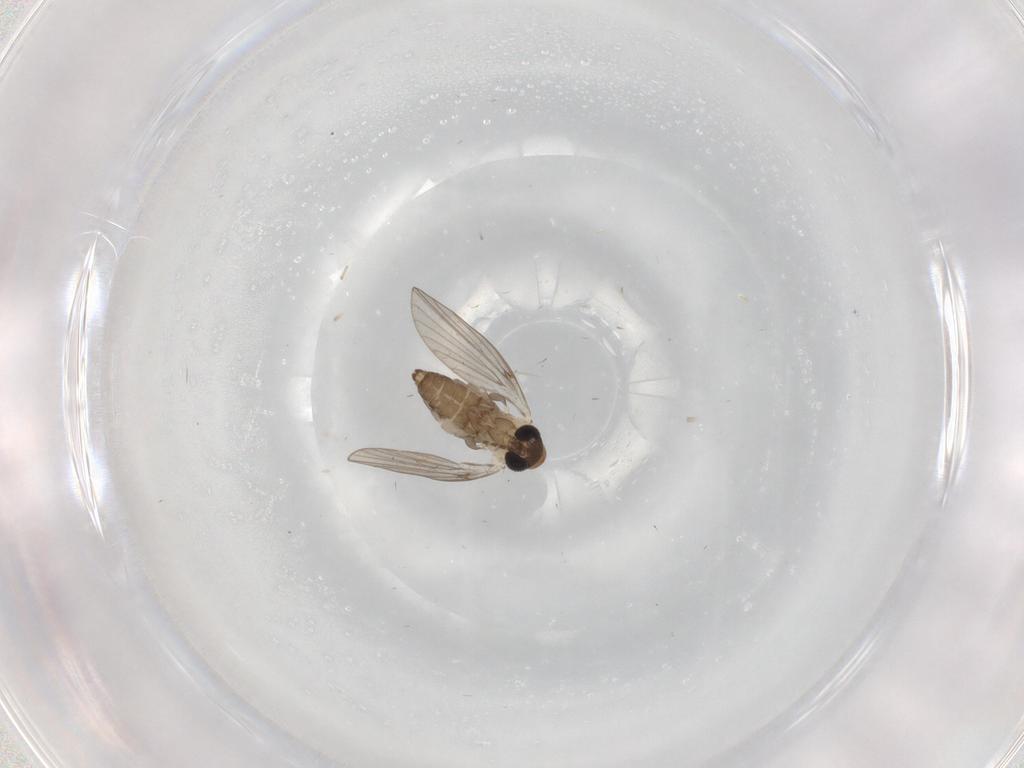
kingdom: Animalia
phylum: Arthropoda
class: Insecta
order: Diptera
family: Psychodidae
